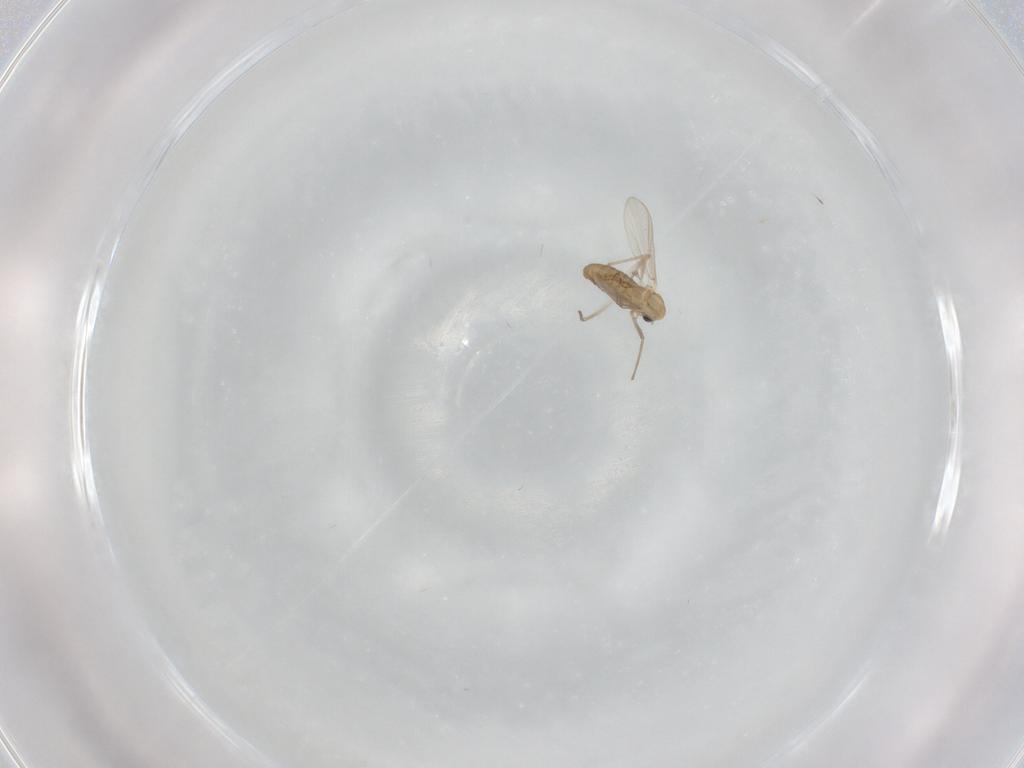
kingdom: Animalia
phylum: Arthropoda
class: Insecta
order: Diptera
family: Chironomidae
